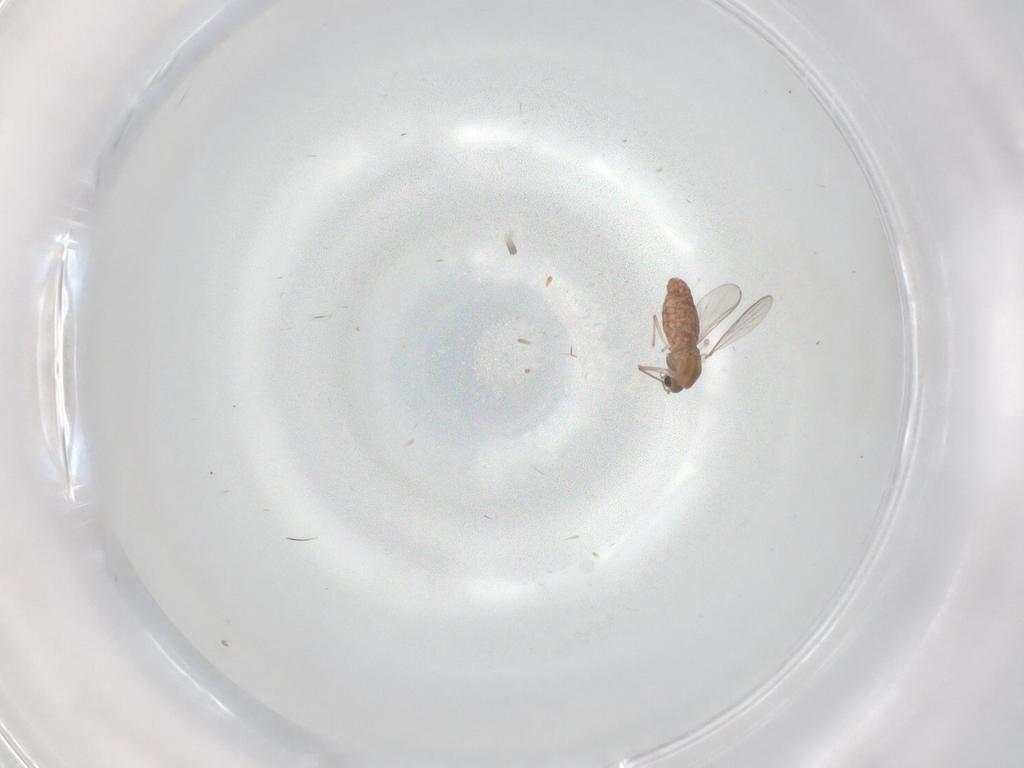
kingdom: Animalia
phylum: Arthropoda
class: Insecta
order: Diptera
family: Chironomidae
